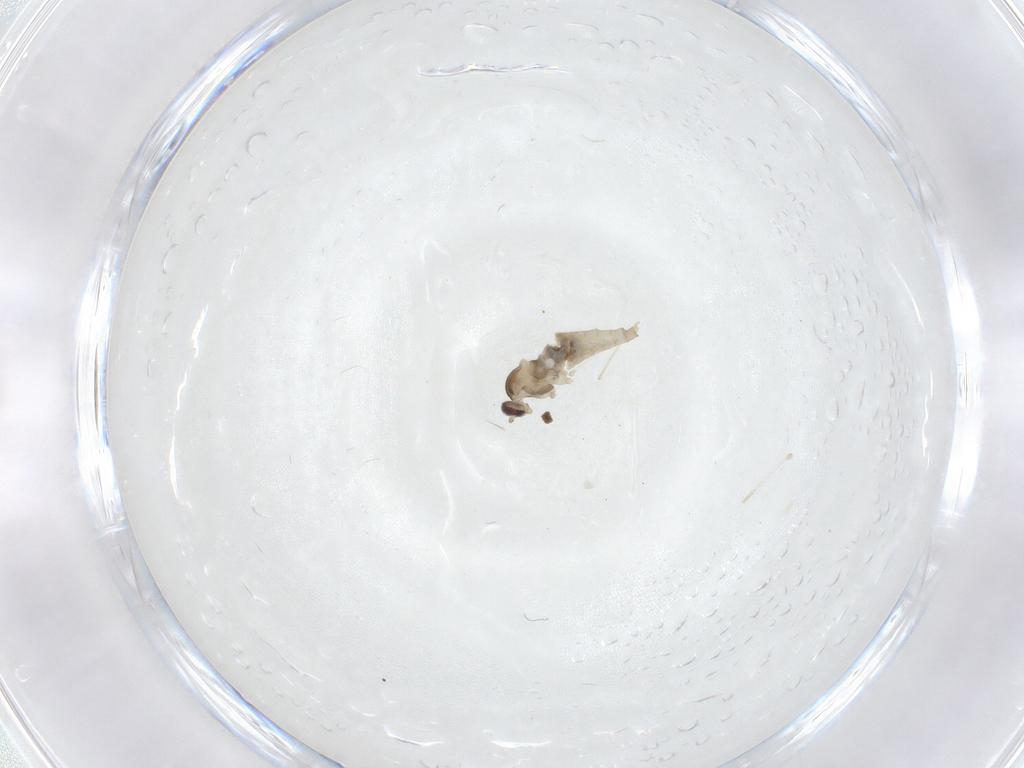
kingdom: Animalia
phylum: Arthropoda
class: Insecta
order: Diptera
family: Cecidomyiidae
